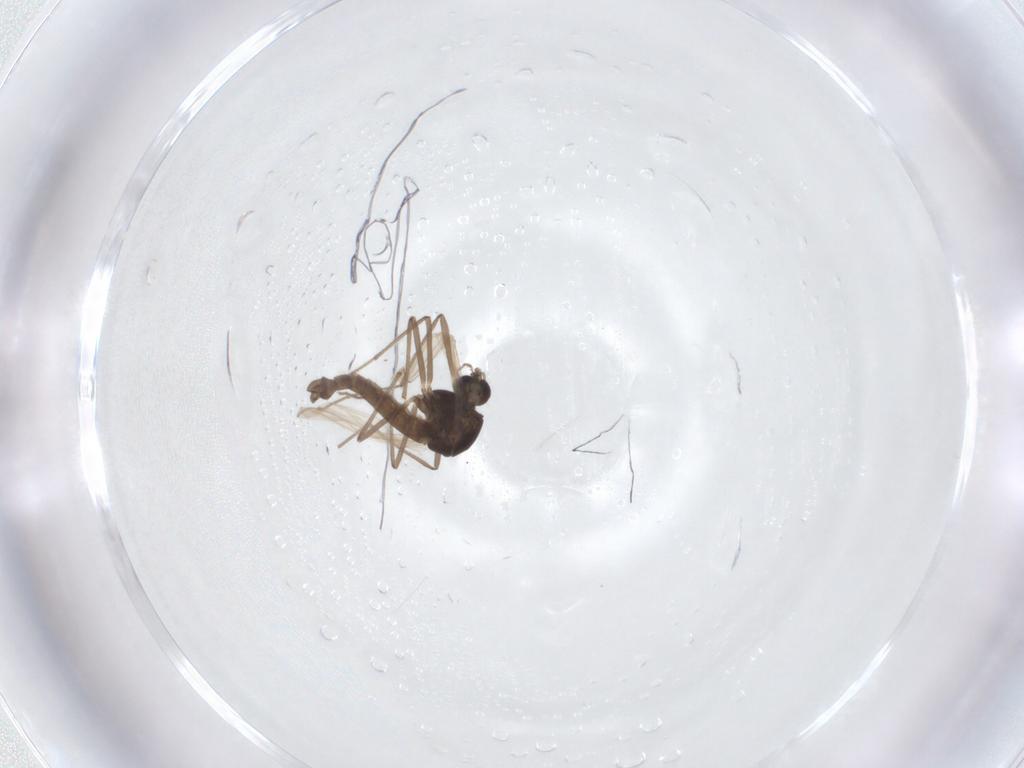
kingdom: Animalia
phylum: Arthropoda
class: Insecta
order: Diptera
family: Chironomidae
